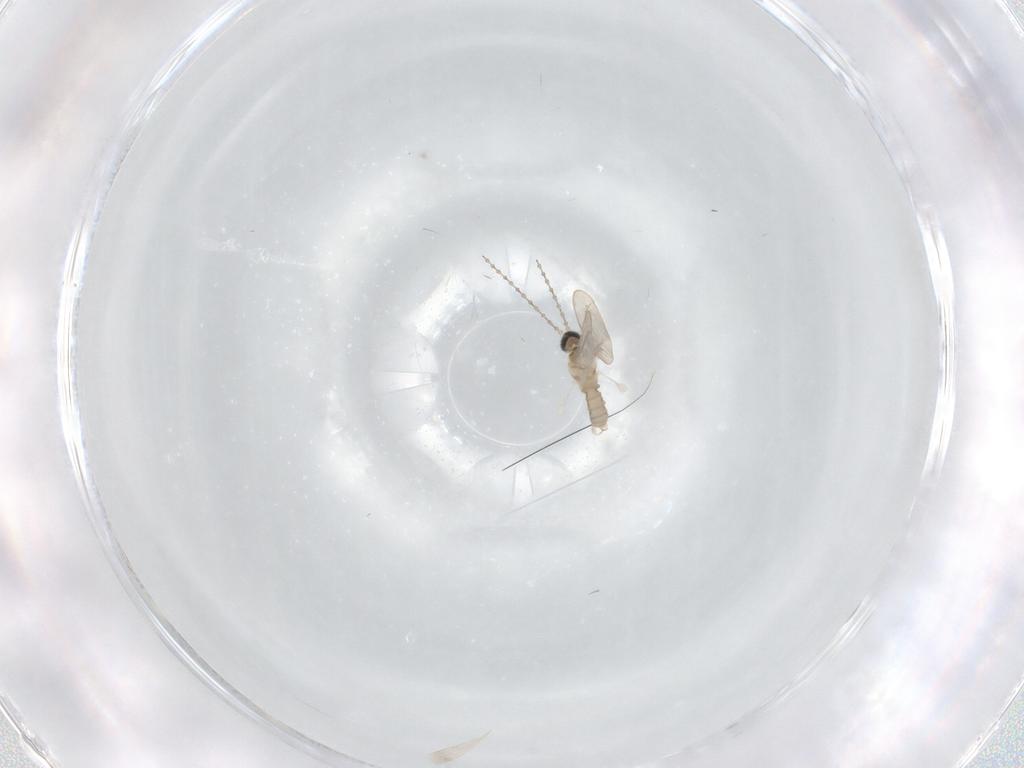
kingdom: Animalia
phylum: Arthropoda
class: Insecta
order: Diptera
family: Cecidomyiidae
